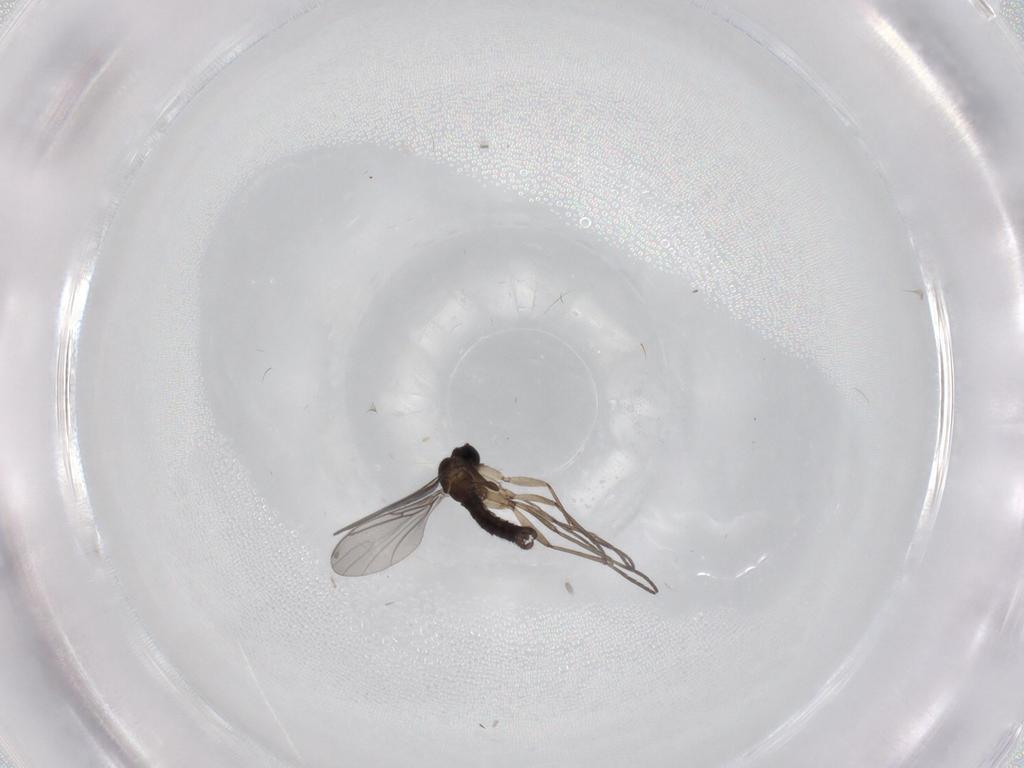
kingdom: Animalia
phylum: Arthropoda
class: Insecta
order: Diptera
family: Sciaridae
